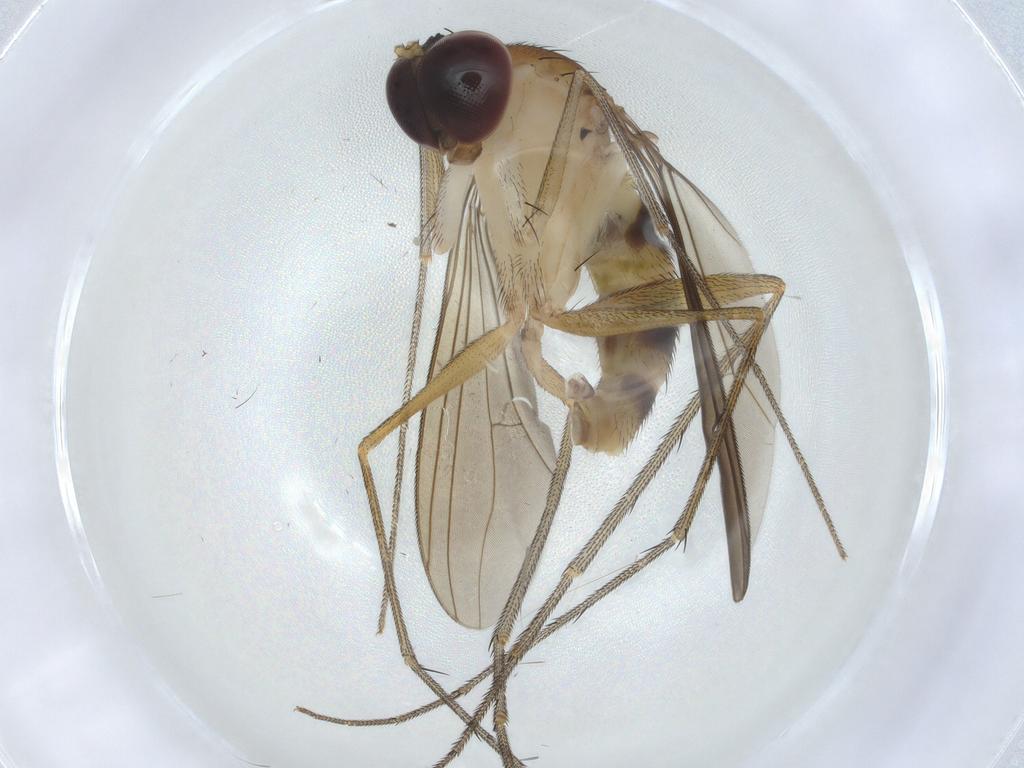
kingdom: Animalia
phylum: Arthropoda
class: Insecta
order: Diptera
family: Dolichopodidae
